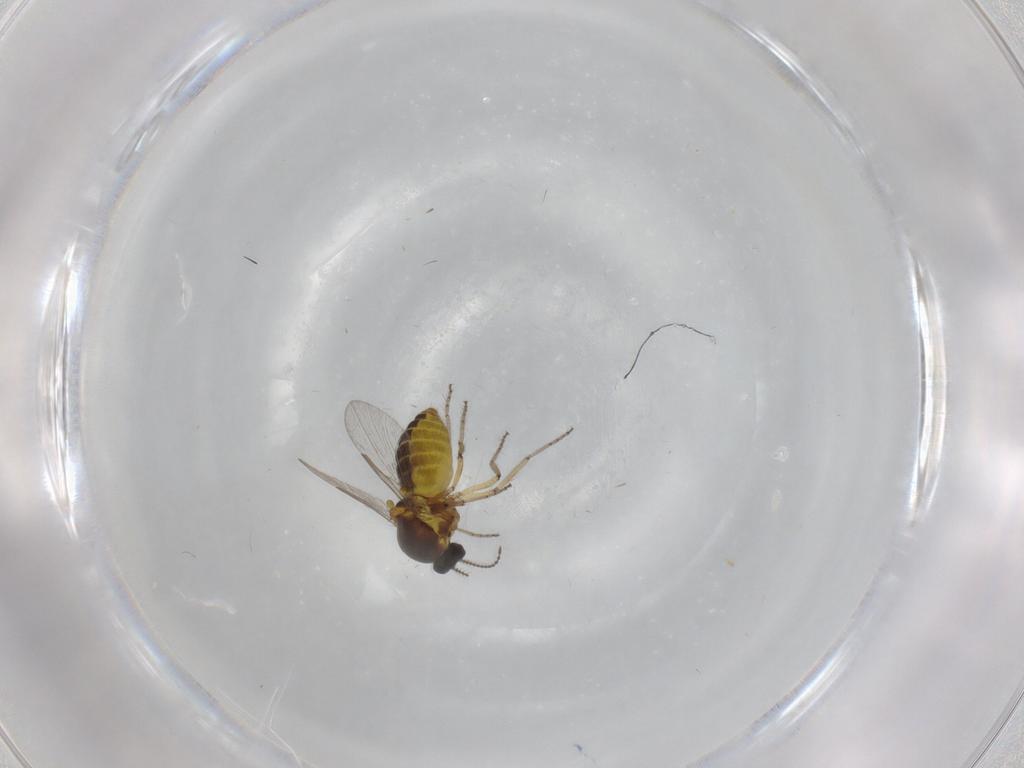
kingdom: Animalia
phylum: Arthropoda
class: Insecta
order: Diptera
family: Ceratopogonidae
